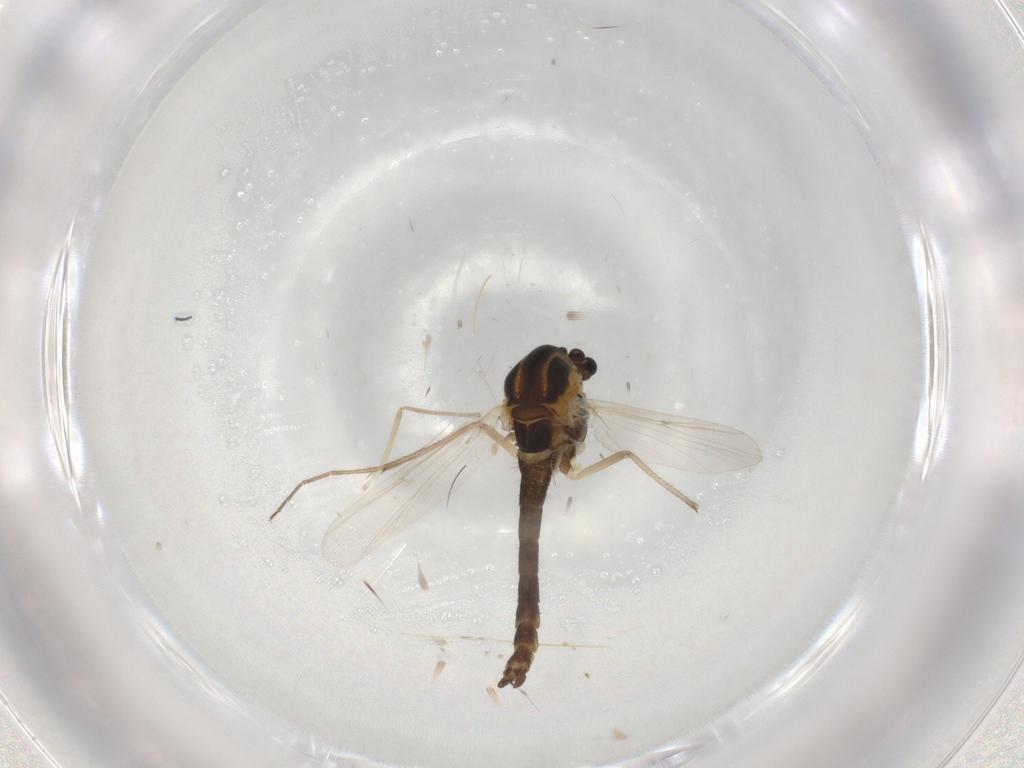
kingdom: Animalia
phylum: Arthropoda
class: Insecta
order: Diptera
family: Chironomidae
